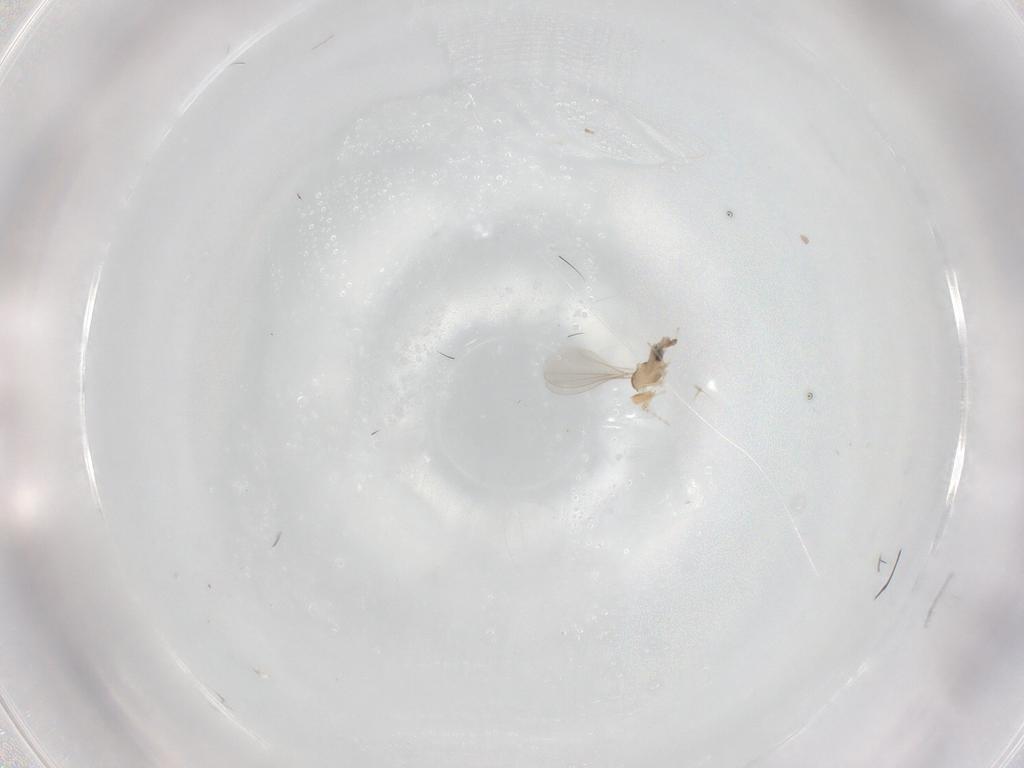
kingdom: Animalia
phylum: Arthropoda
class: Insecta
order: Diptera
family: Cecidomyiidae
